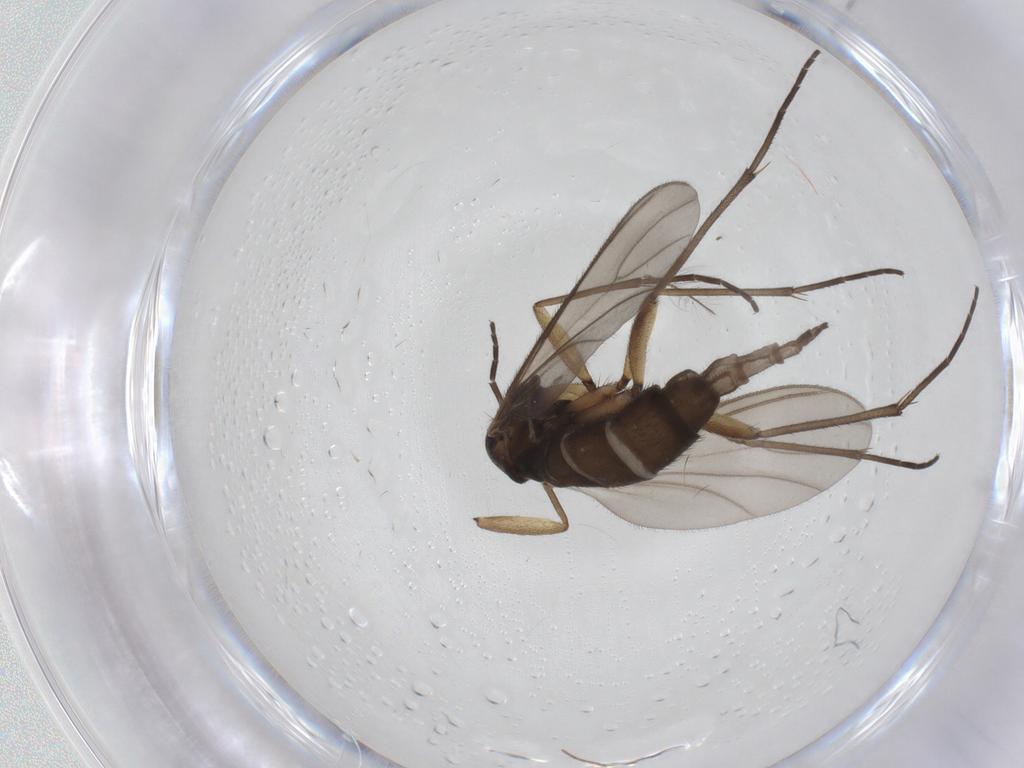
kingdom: Animalia
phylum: Arthropoda
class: Insecta
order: Diptera
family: Sciaridae
